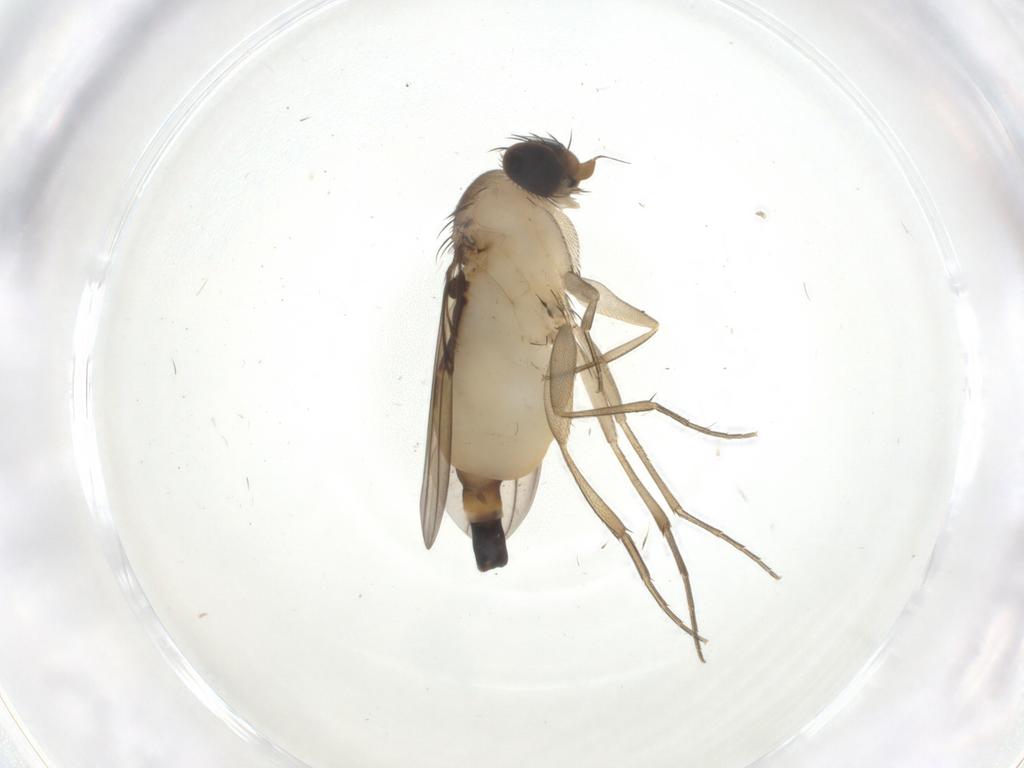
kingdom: Animalia
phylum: Arthropoda
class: Insecta
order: Diptera
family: Phoridae
